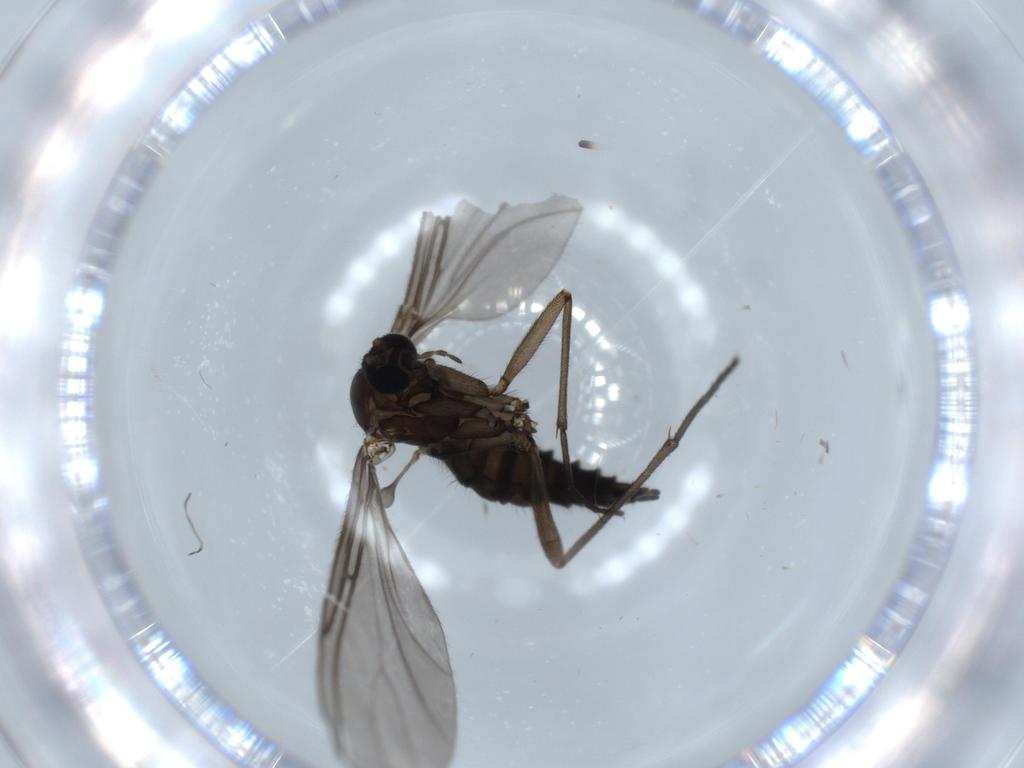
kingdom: Animalia
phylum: Arthropoda
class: Insecta
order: Diptera
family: Sciaridae
